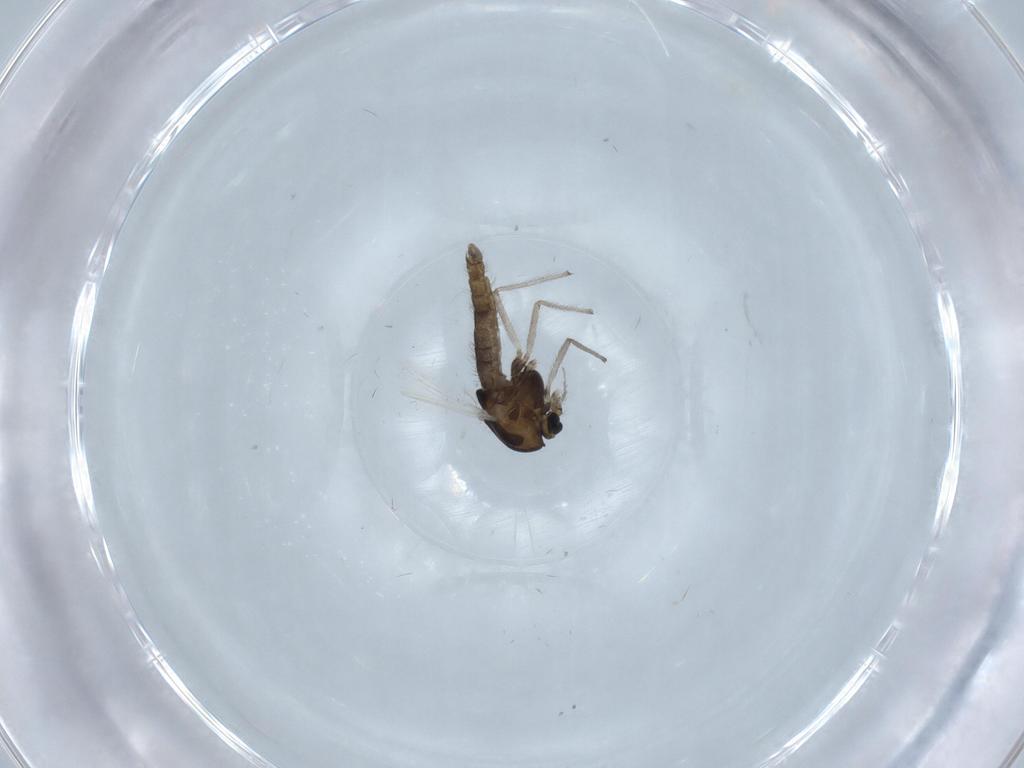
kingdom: Animalia
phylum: Arthropoda
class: Insecta
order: Diptera
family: Chironomidae
